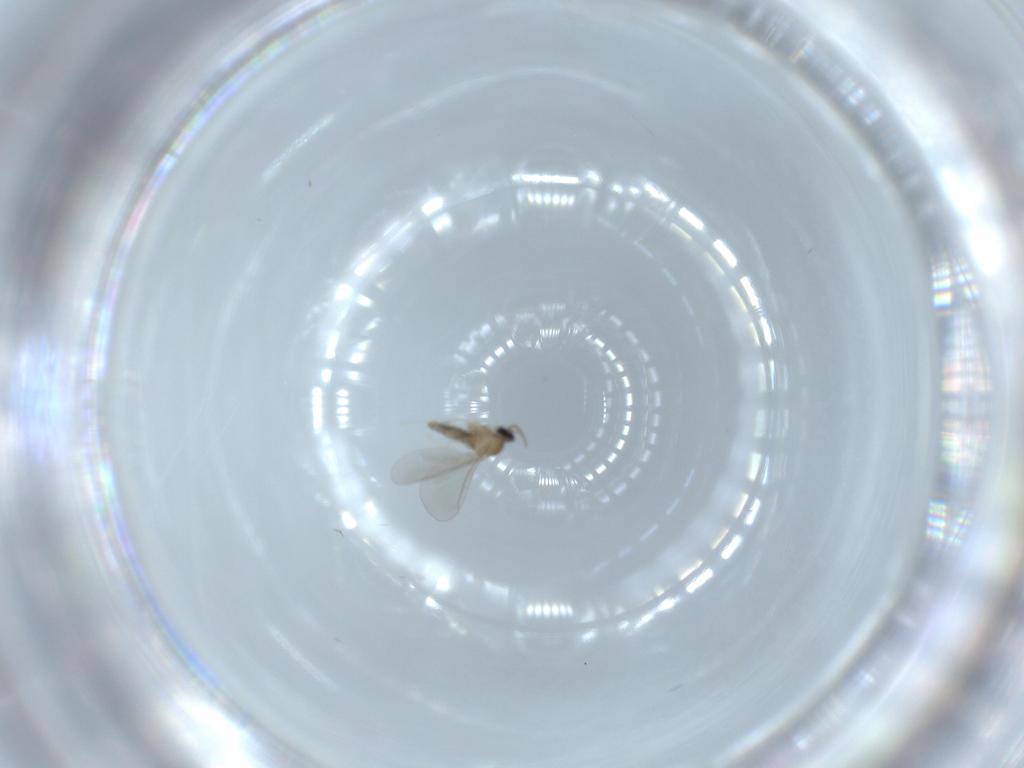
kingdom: Animalia
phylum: Arthropoda
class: Insecta
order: Diptera
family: Cecidomyiidae
